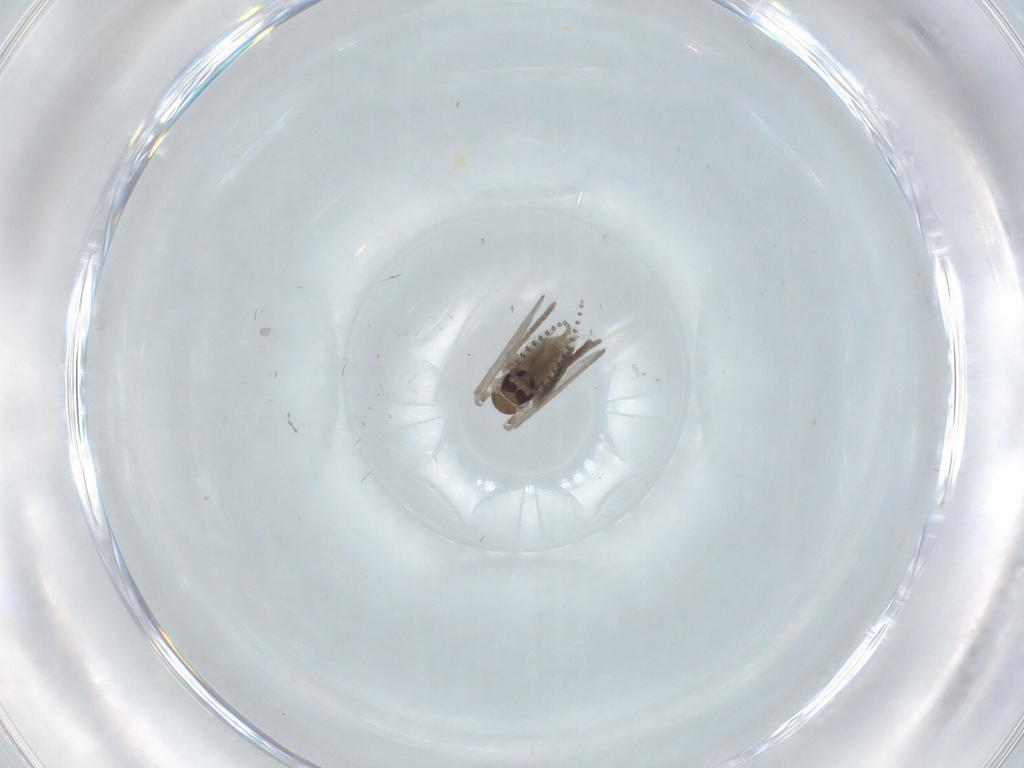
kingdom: Animalia
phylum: Arthropoda
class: Insecta
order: Diptera
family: Psychodidae
